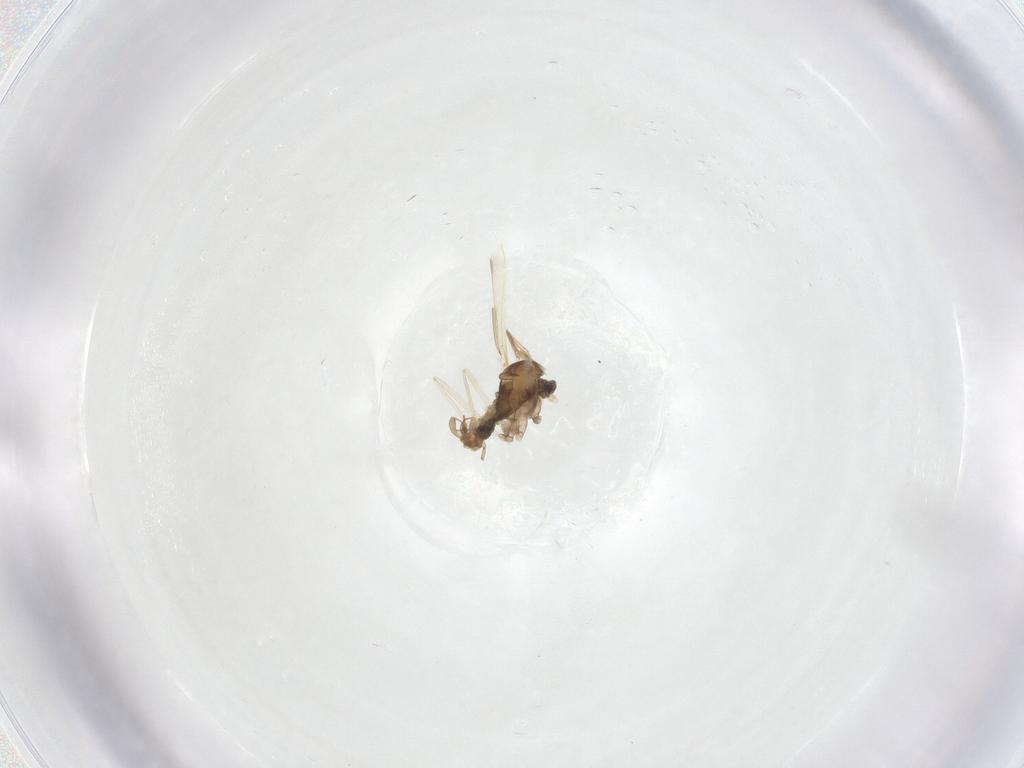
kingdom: Animalia
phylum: Arthropoda
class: Insecta
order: Diptera
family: Cecidomyiidae
